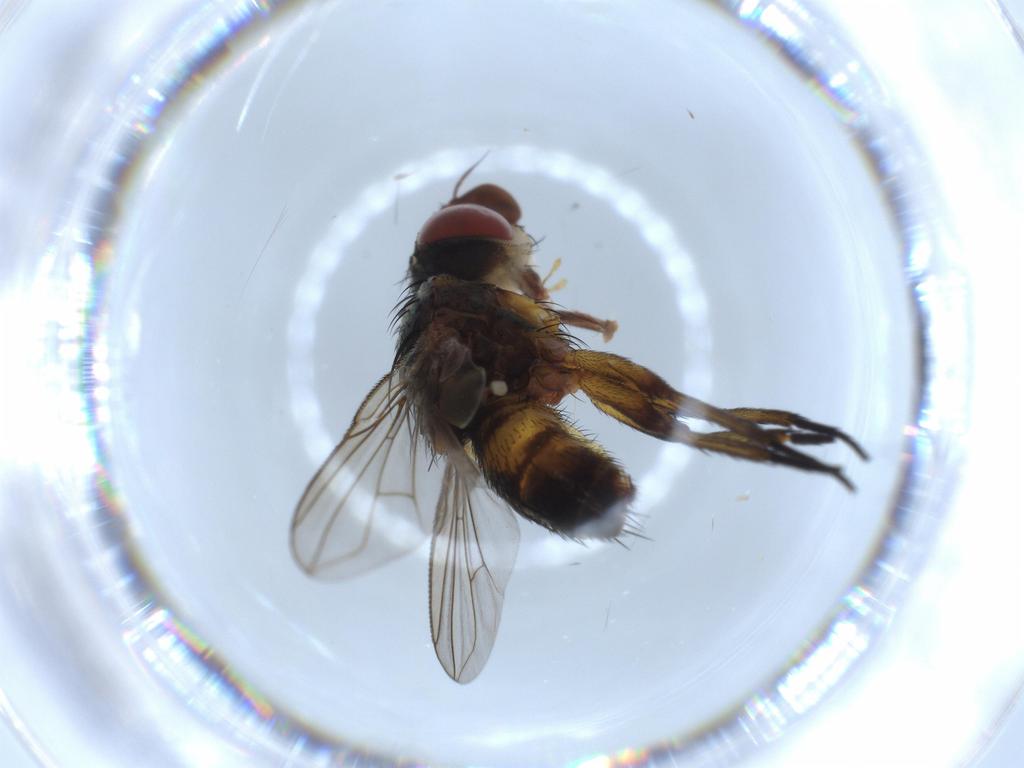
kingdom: Animalia
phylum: Arthropoda
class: Insecta
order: Diptera
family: Tachinidae
